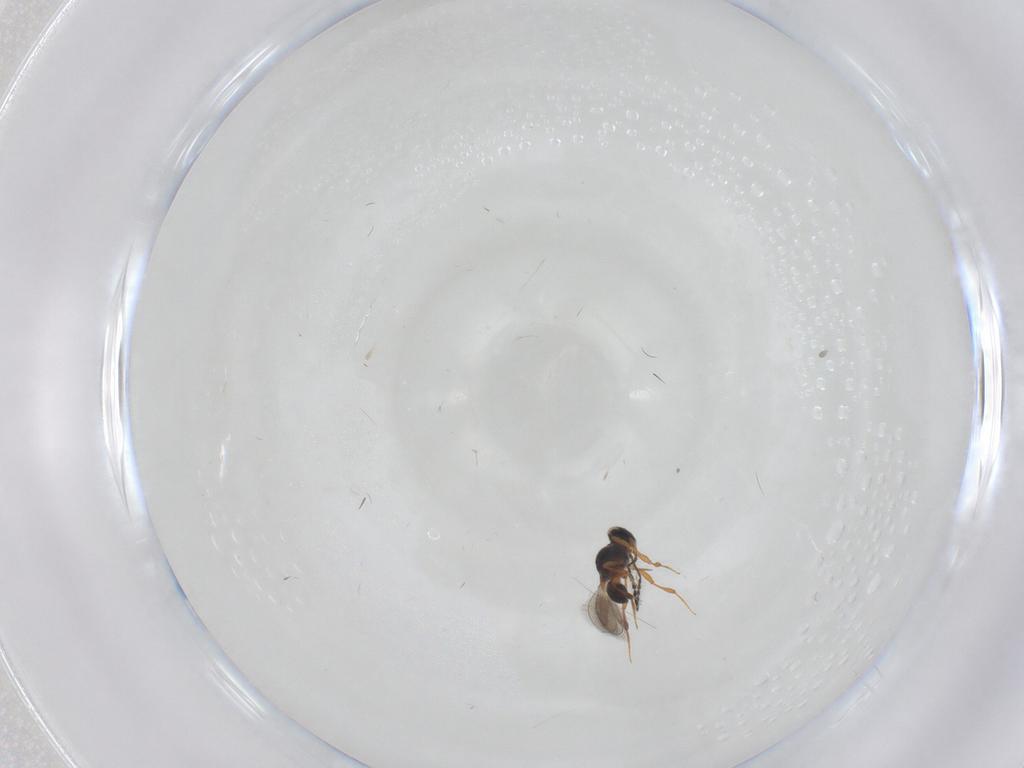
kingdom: Animalia
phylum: Arthropoda
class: Insecta
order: Hymenoptera
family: Platygastridae
